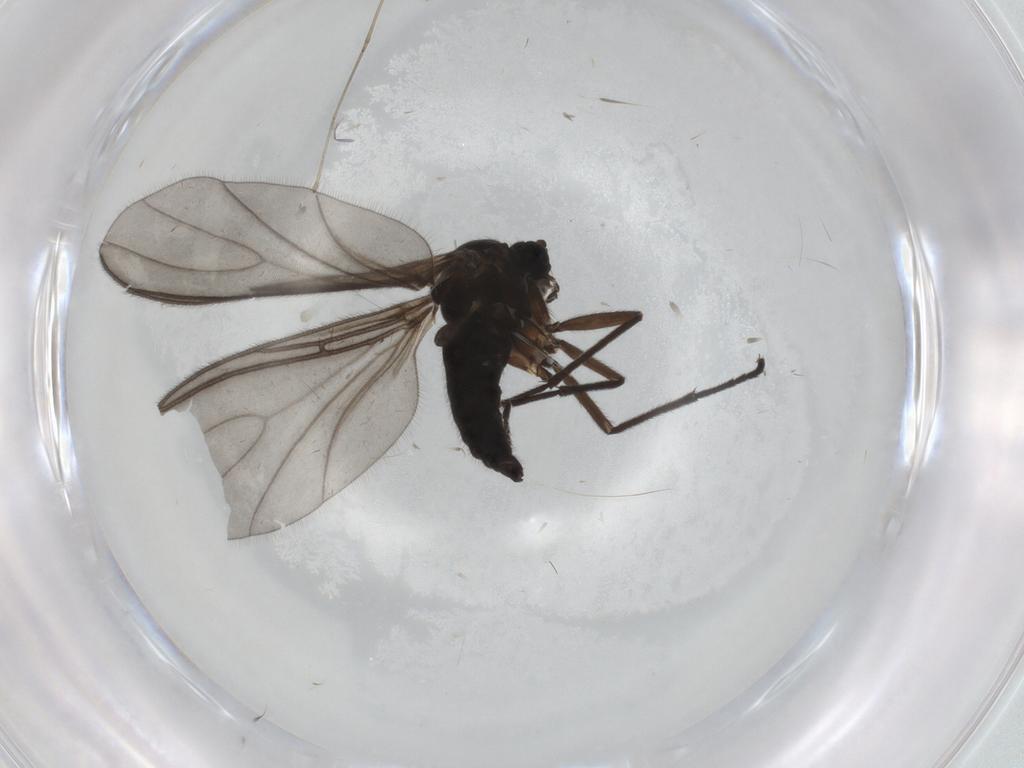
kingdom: Animalia
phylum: Arthropoda
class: Insecta
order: Diptera
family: Sciaridae
